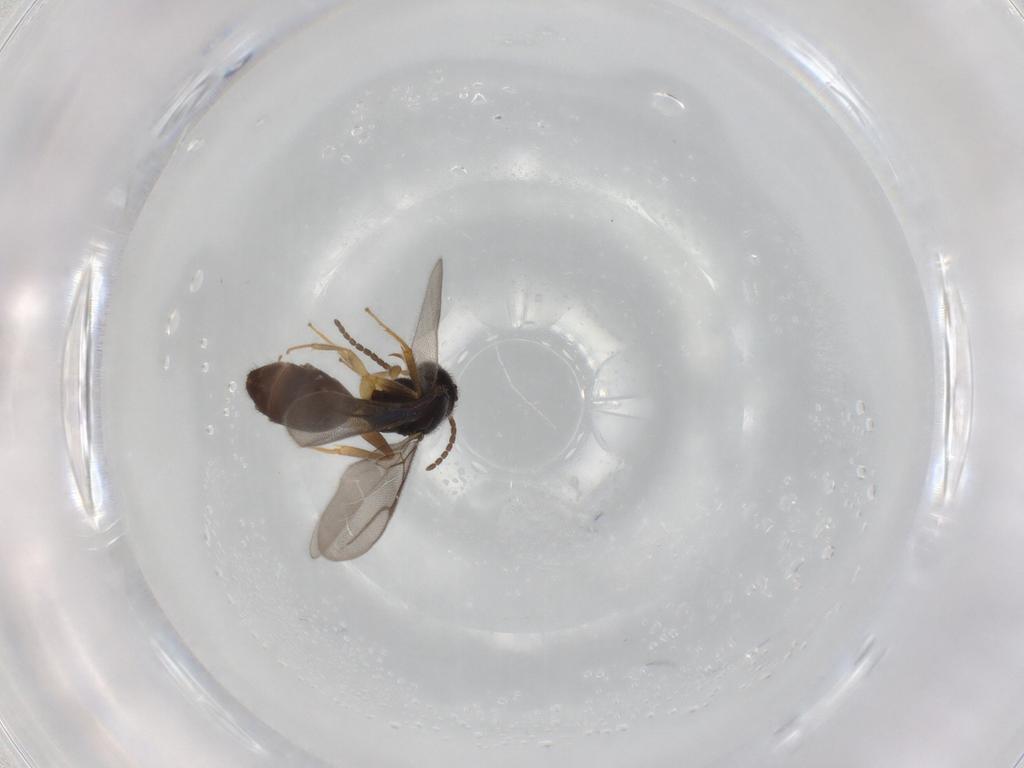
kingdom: Animalia
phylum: Arthropoda
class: Insecta
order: Hymenoptera
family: Bethylidae
